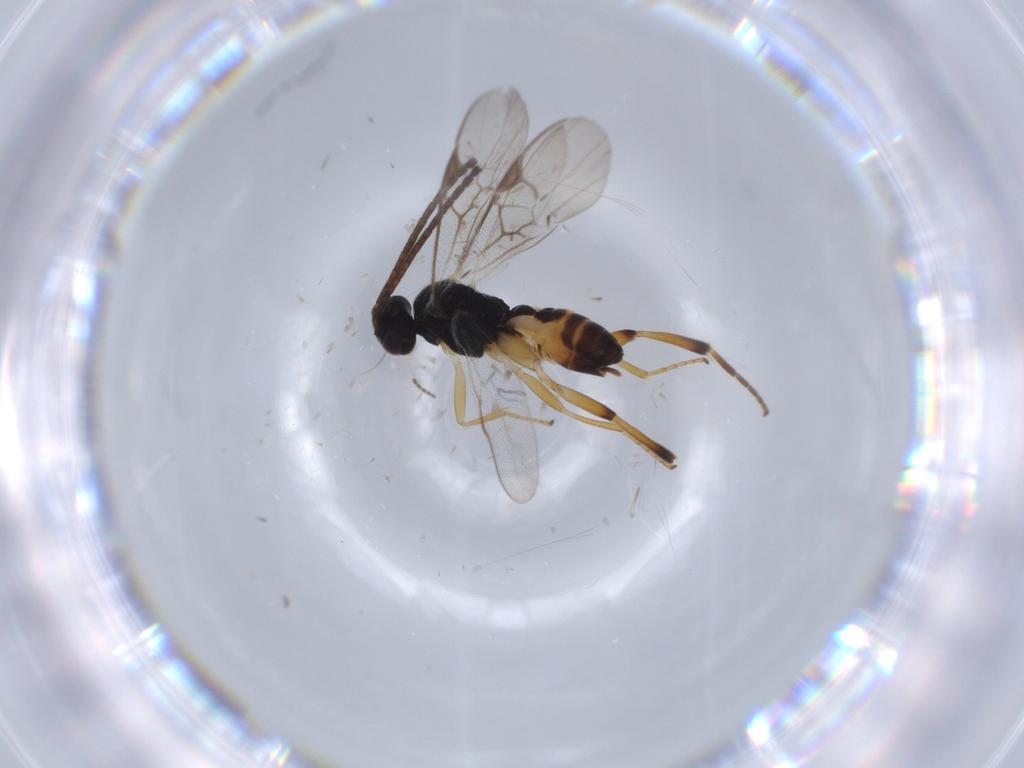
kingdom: Animalia
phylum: Arthropoda
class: Insecta
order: Hymenoptera
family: Braconidae
